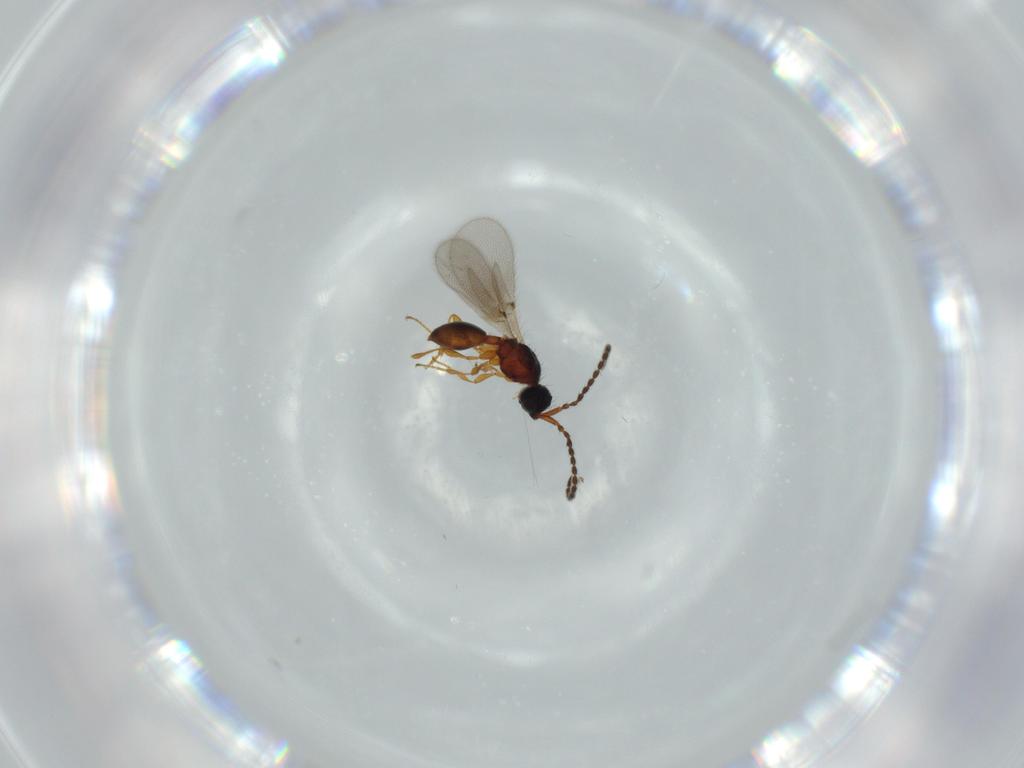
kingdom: Animalia
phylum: Arthropoda
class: Insecta
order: Hymenoptera
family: Diapriidae
